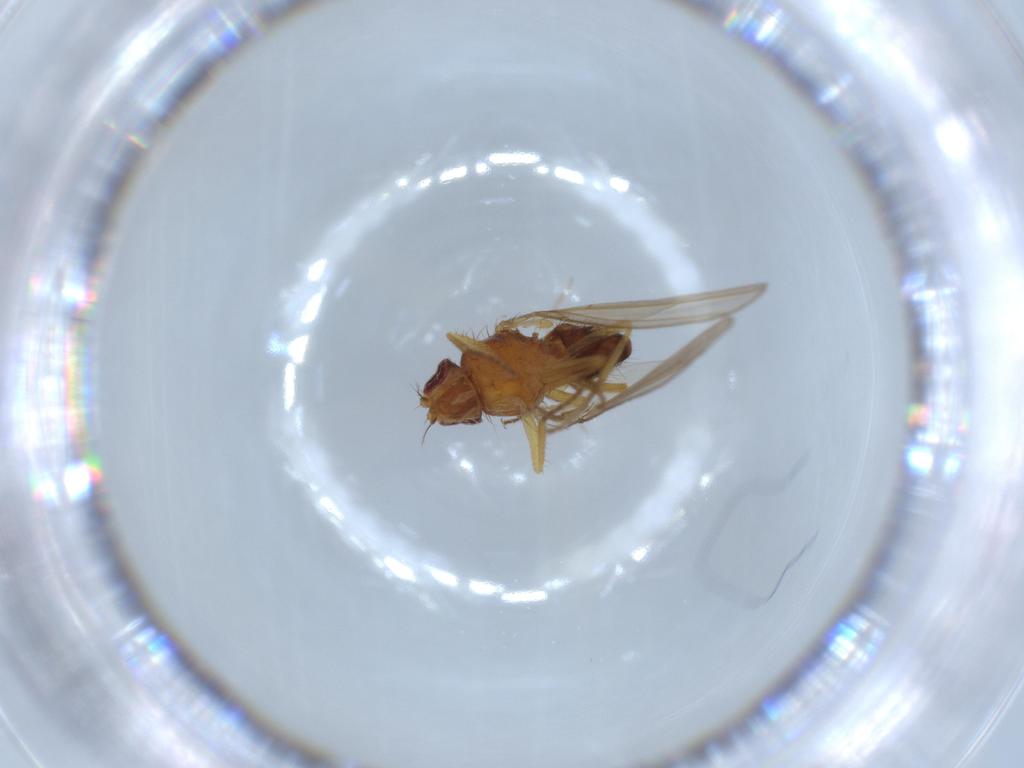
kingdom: Animalia
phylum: Arthropoda
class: Insecta
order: Diptera
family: Drosophilidae
